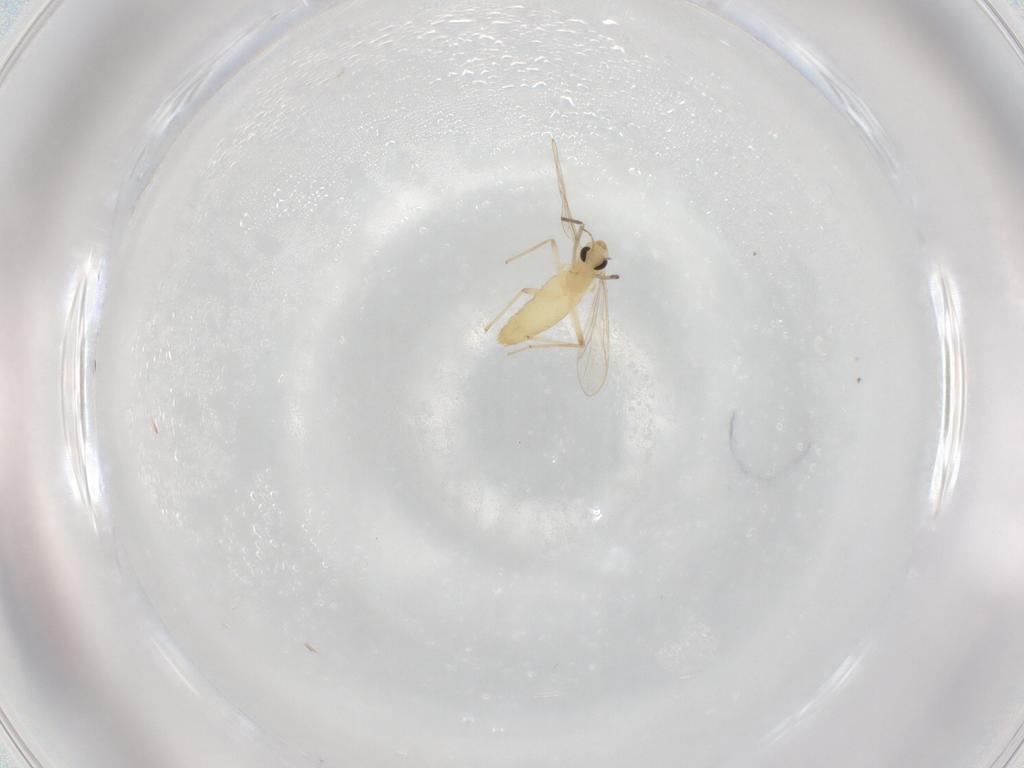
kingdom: Animalia
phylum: Arthropoda
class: Insecta
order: Diptera
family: Chironomidae
